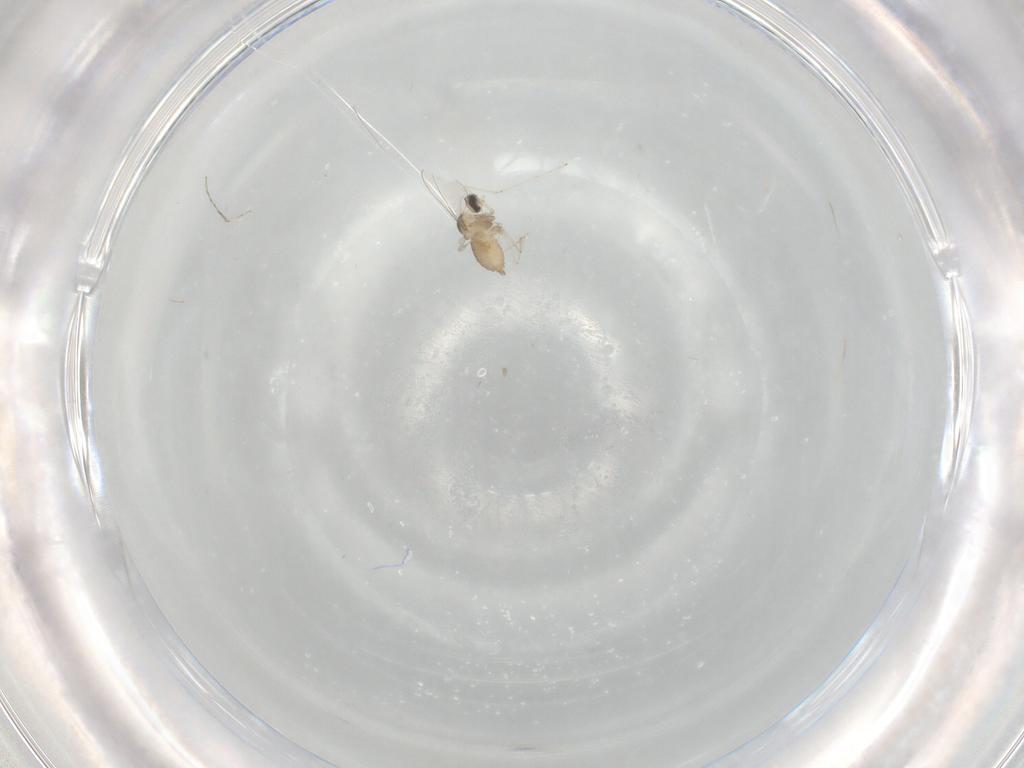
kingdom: Animalia
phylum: Arthropoda
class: Insecta
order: Diptera
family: Cecidomyiidae
